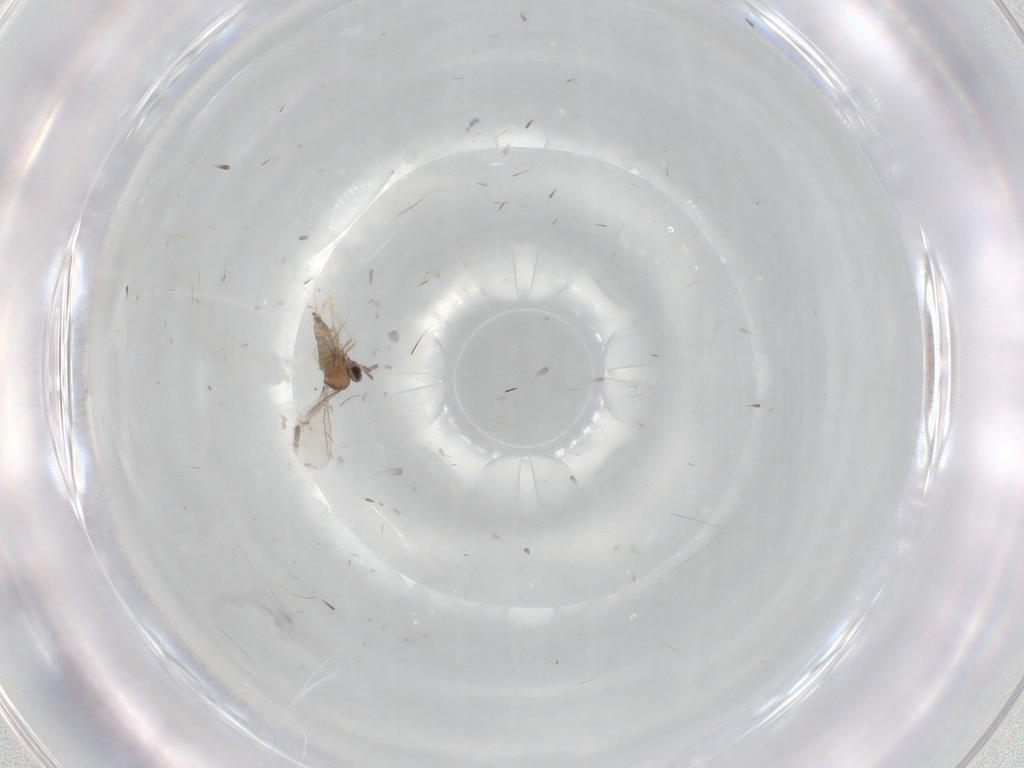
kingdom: Animalia
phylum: Arthropoda
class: Insecta
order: Diptera
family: Cecidomyiidae
